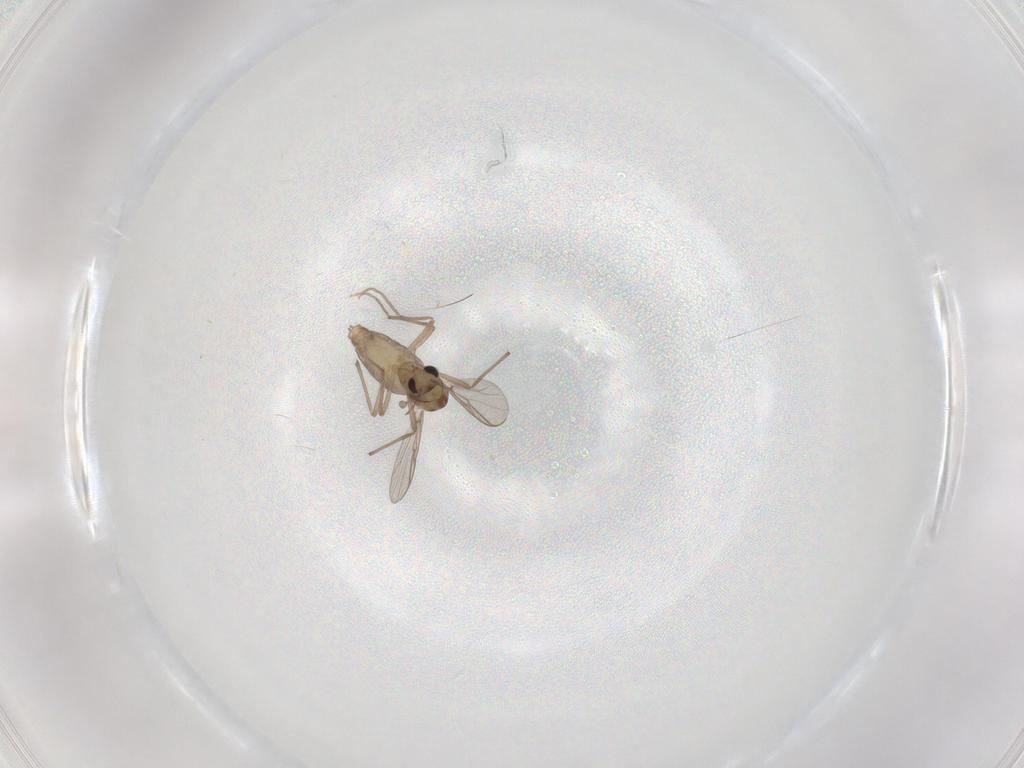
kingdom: Animalia
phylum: Arthropoda
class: Insecta
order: Diptera
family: Chironomidae
